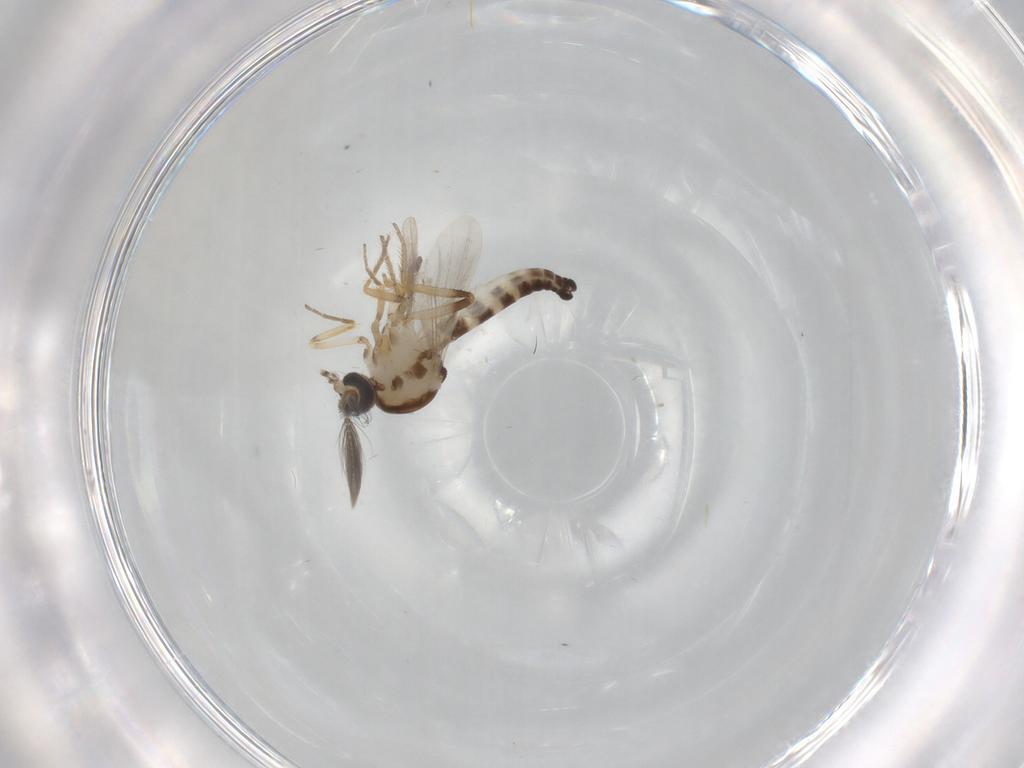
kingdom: Animalia
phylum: Arthropoda
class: Insecta
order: Diptera
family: Ceratopogonidae
